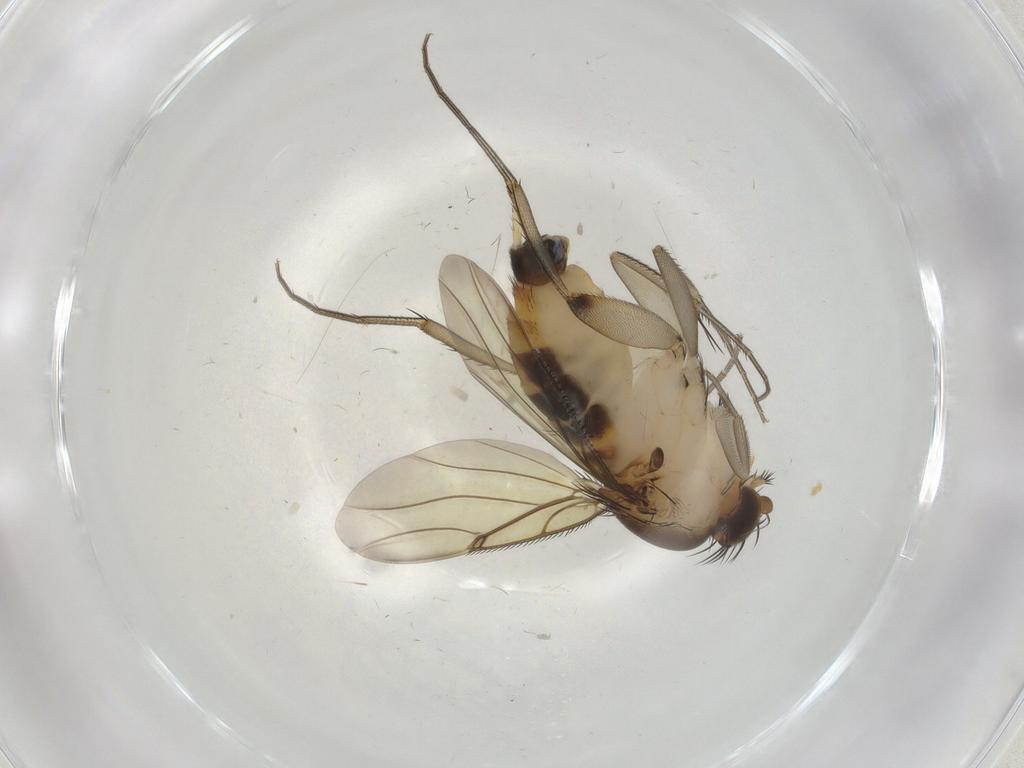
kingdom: Animalia
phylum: Arthropoda
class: Insecta
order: Diptera
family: Phoridae
